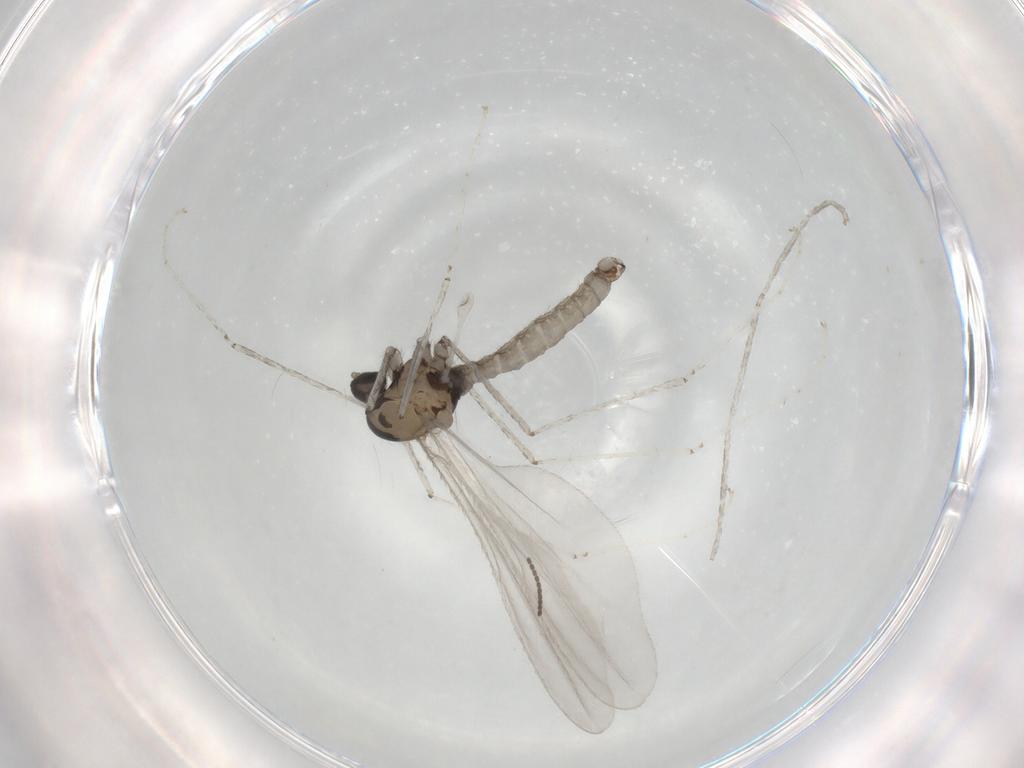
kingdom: Animalia
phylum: Arthropoda
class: Insecta
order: Diptera
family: Cecidomyiidae
